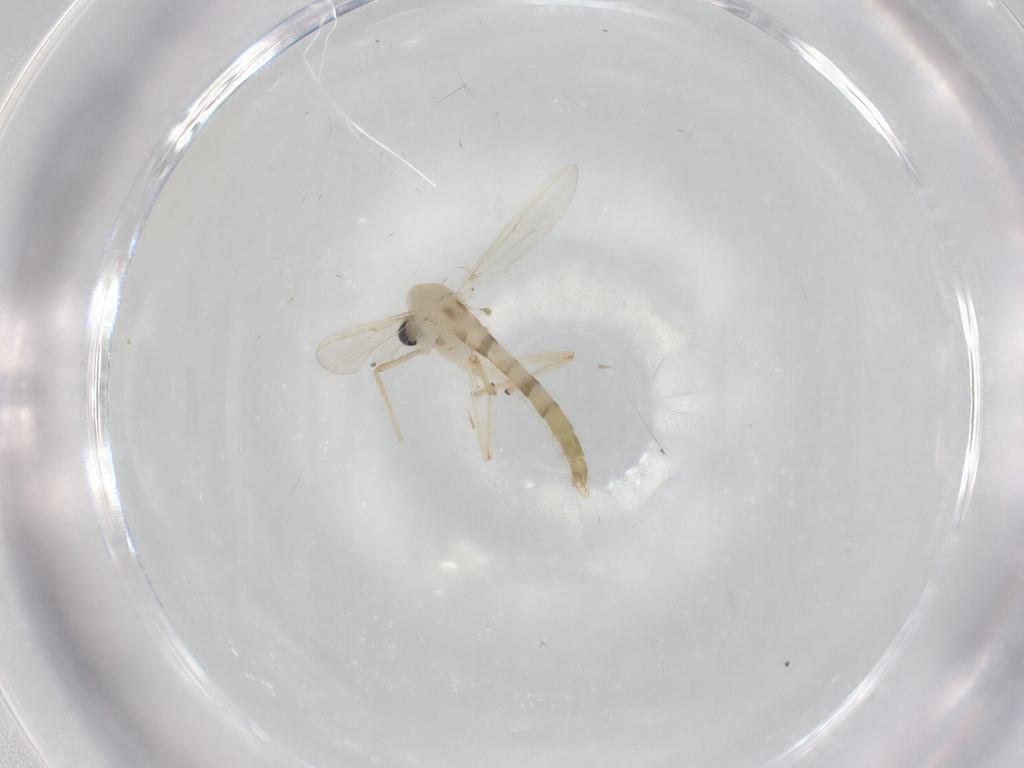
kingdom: Animalia
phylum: Arthropoda
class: Insecta
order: Diptera
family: Chironomidae
